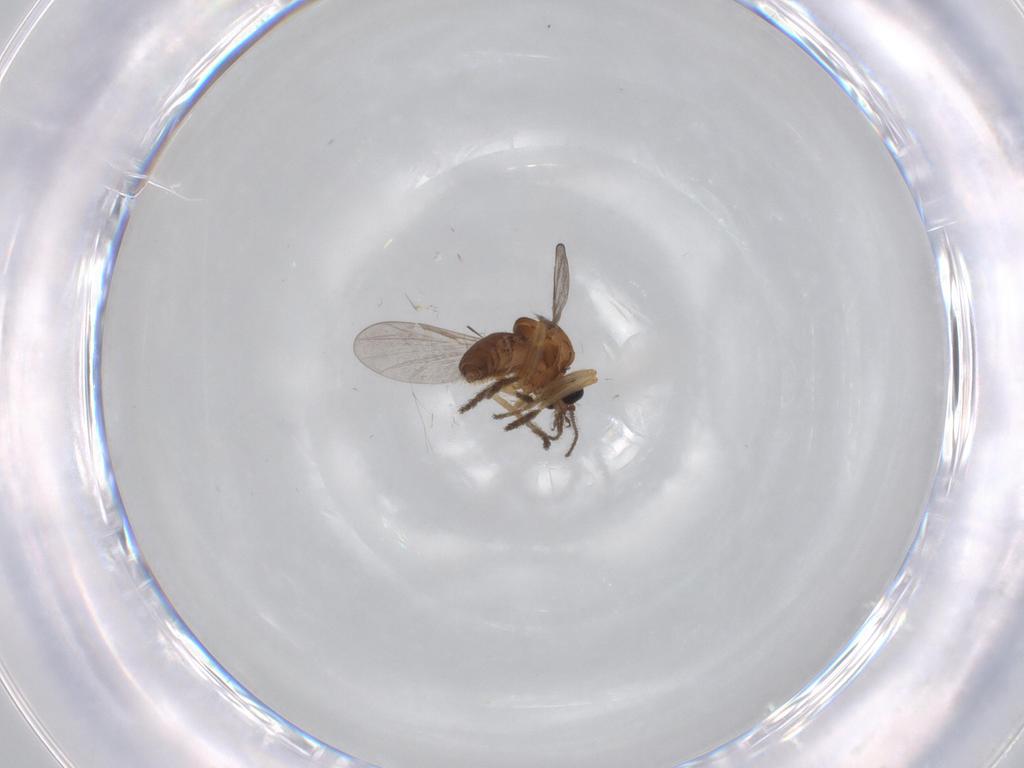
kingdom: Animalia
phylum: Arthropoda
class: Insecta
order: Diptera
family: Ceratopogonidae
